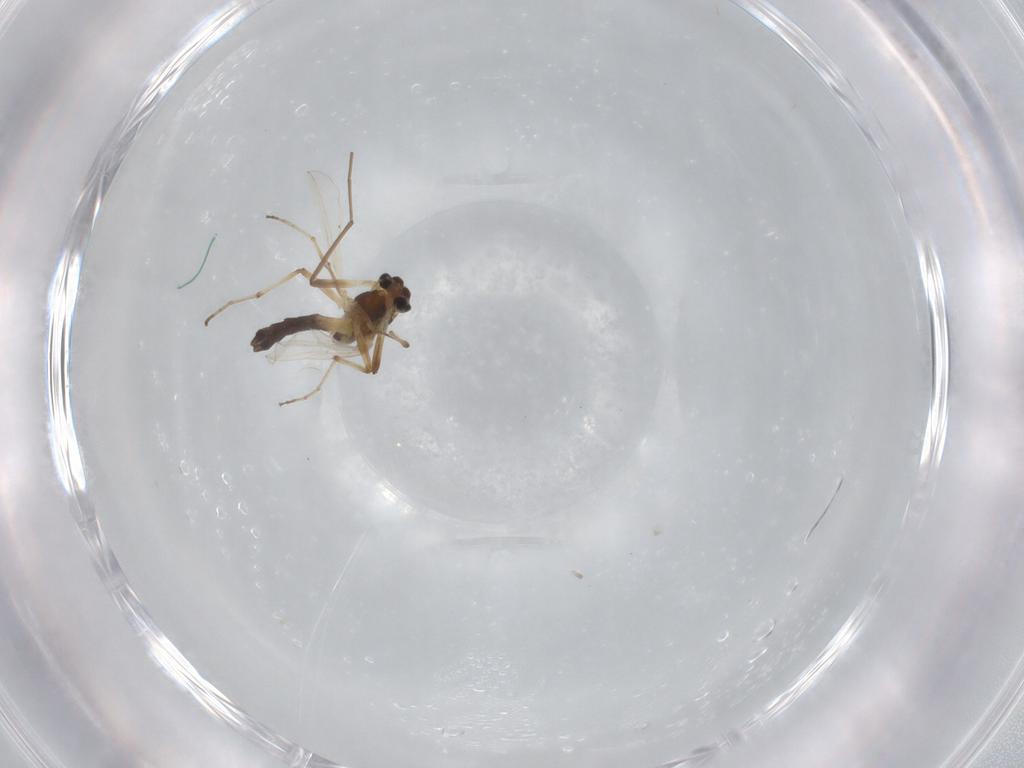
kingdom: Animalia
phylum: Arthropoda
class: Insecta
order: Diptera
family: Chironomidae
